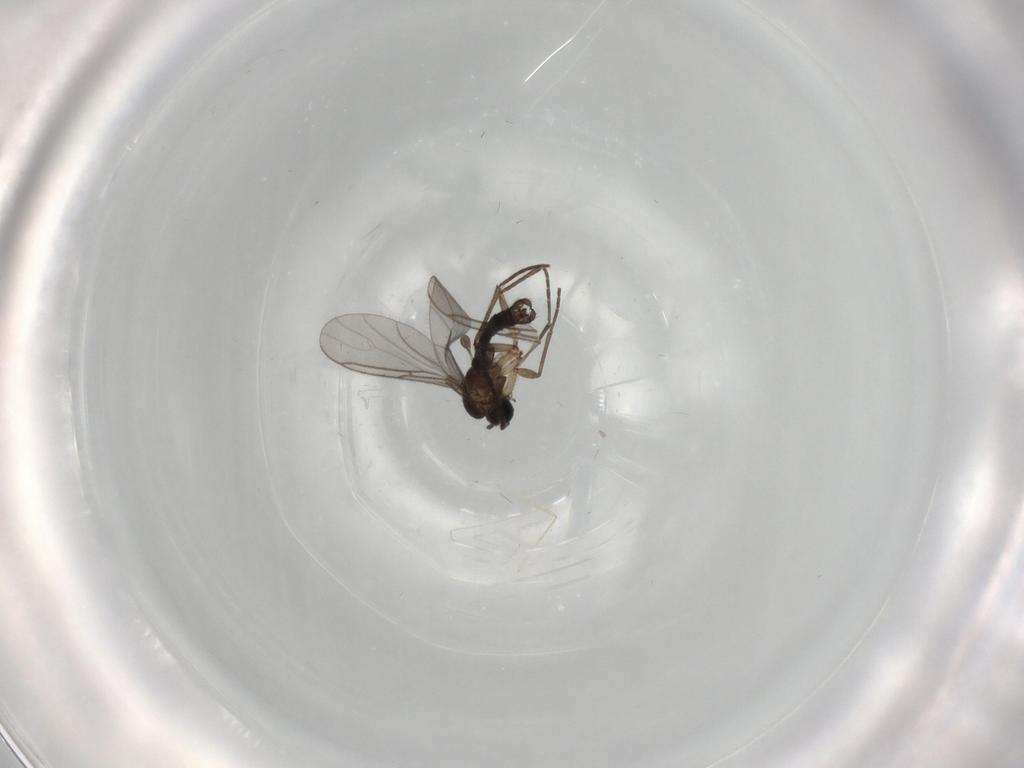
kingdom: Animalia
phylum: Arthropoda
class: Insecta
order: Diptera
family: Sciaridae
